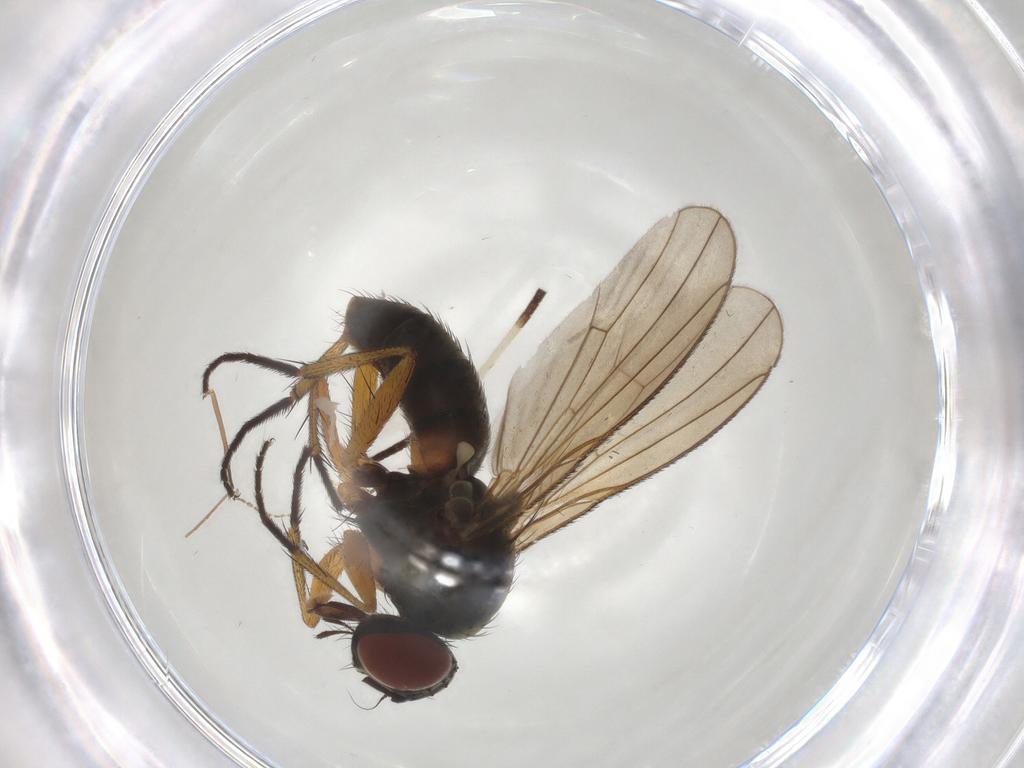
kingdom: Animalia
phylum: Arthropoda
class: Insecta
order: Diptera
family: Muscidae
